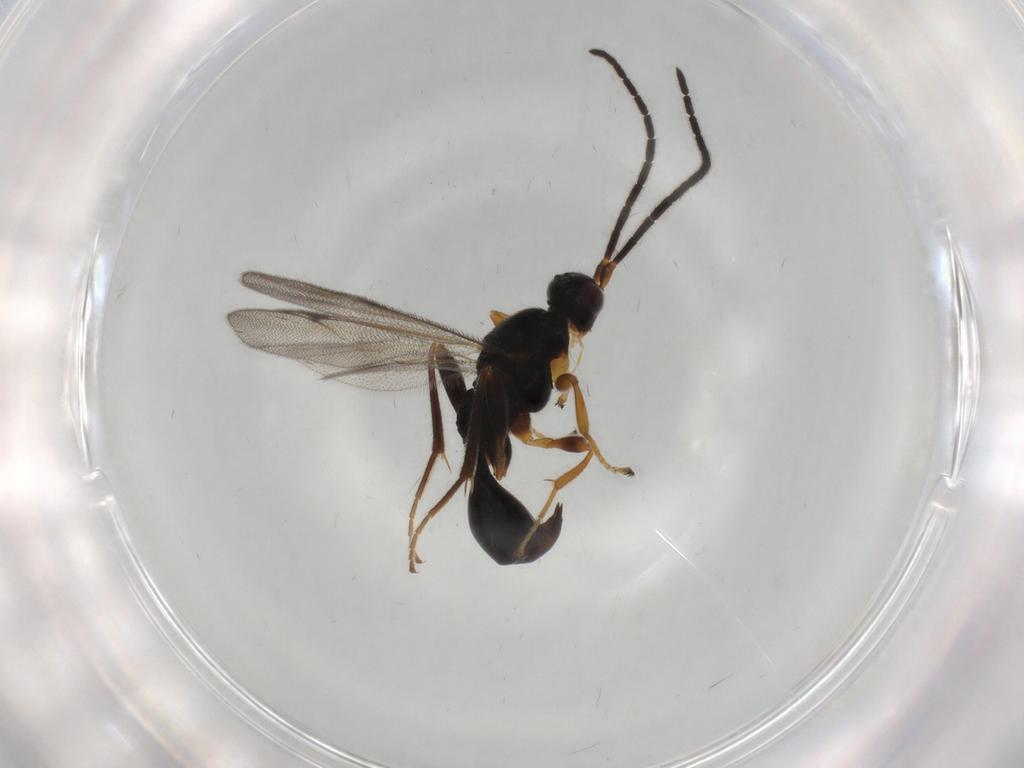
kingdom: Animalia
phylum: Arthropoda
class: Insecta
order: Hymenoptera
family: Proctotrupidae
